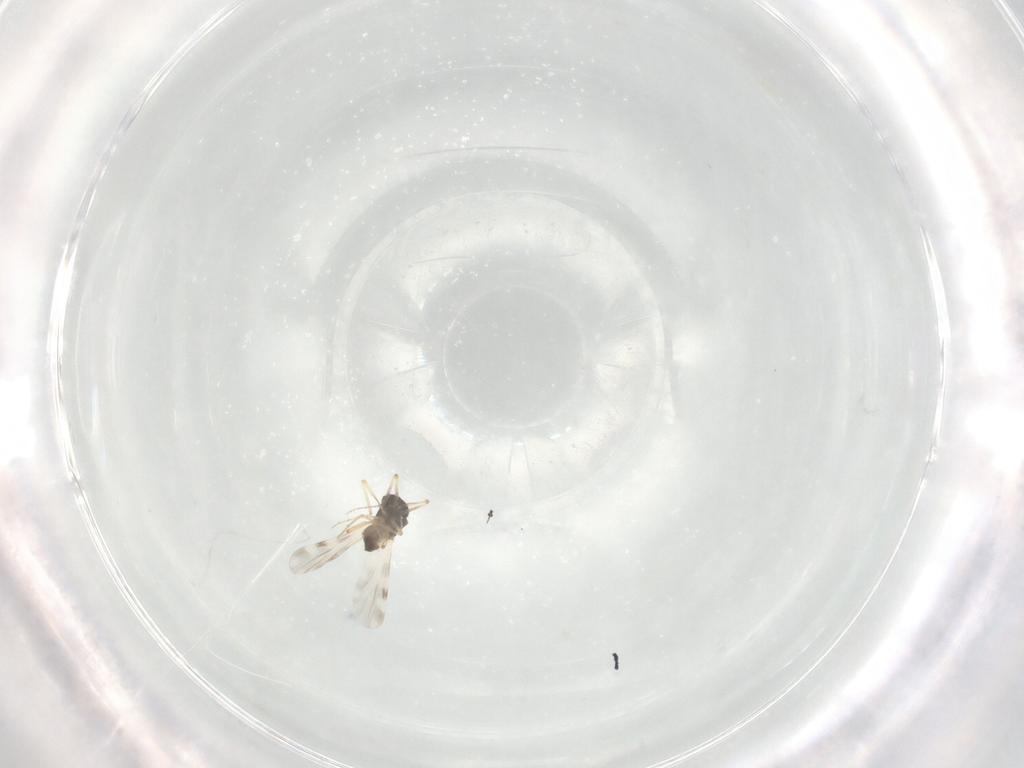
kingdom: Animalia
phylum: Arthropoda
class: Insecta
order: Diptera
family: Ceratopogonidae
